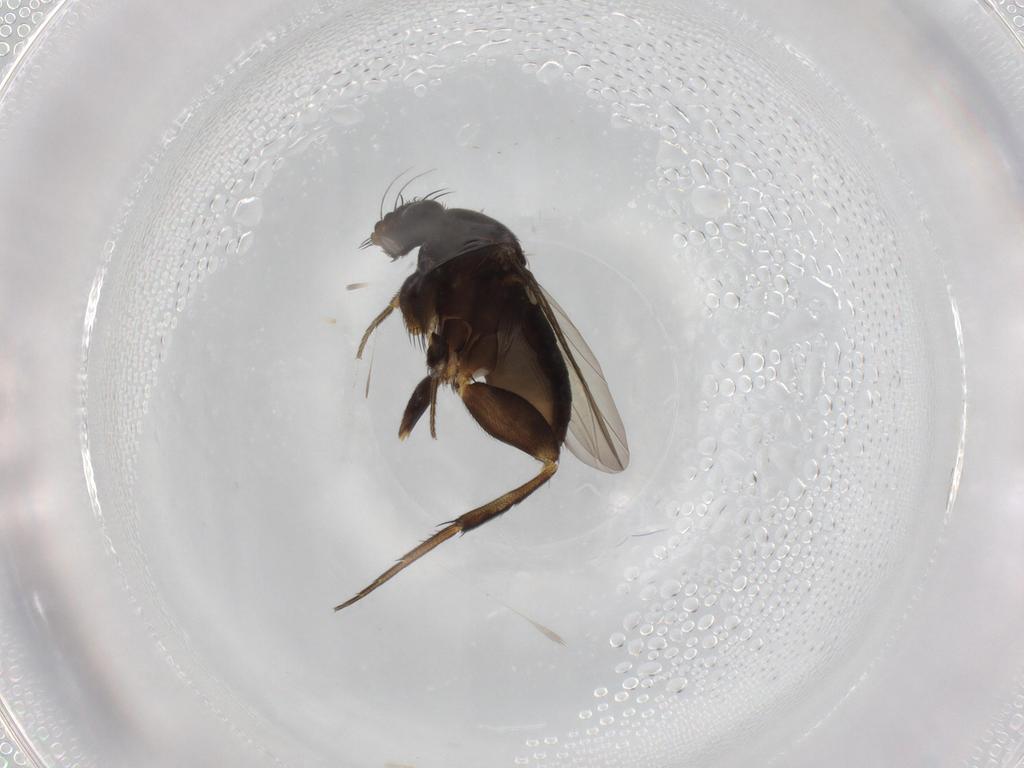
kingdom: Animalia
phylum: Arthropoda
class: Insecta
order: Diptera
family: Phoridae
